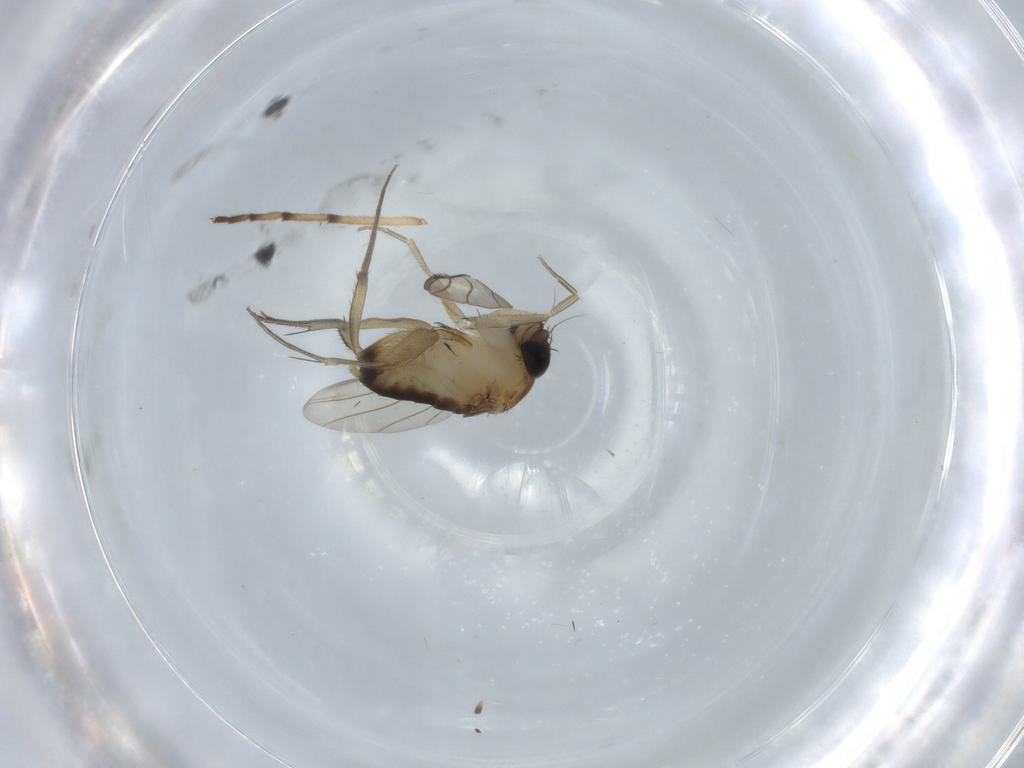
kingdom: Animalia
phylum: Arthropoda
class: Insecta
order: Diptera
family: Phoridae
